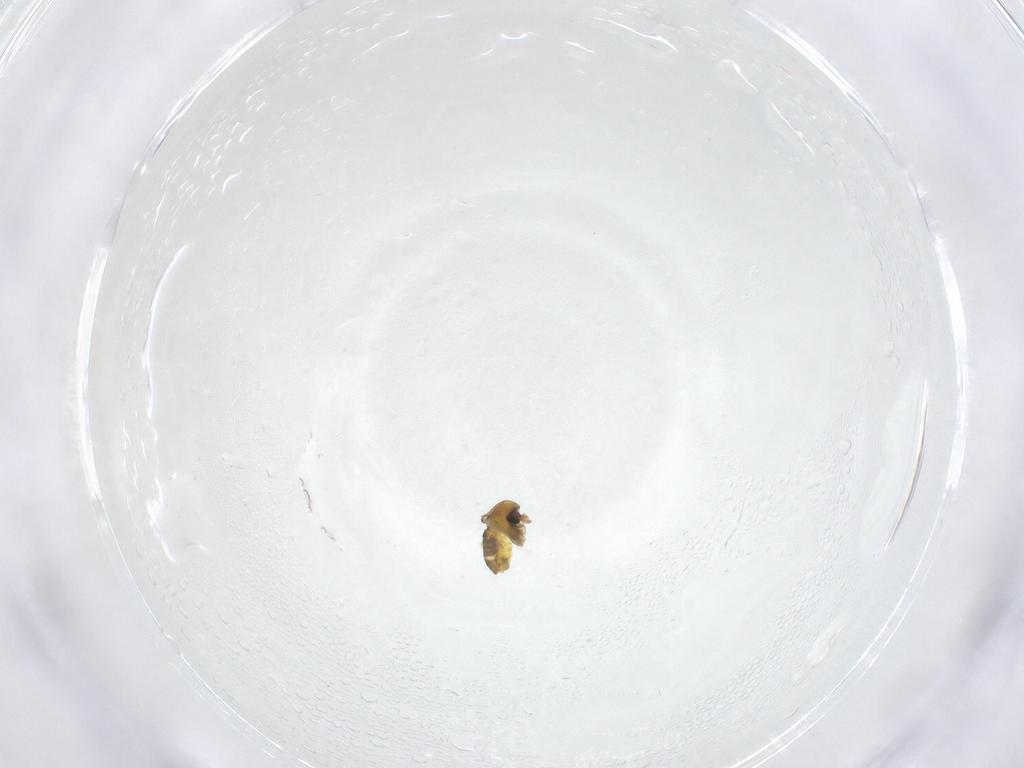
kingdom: Animalia
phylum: Arthropoda
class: Insecta
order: Diptera
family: Chironomidae
